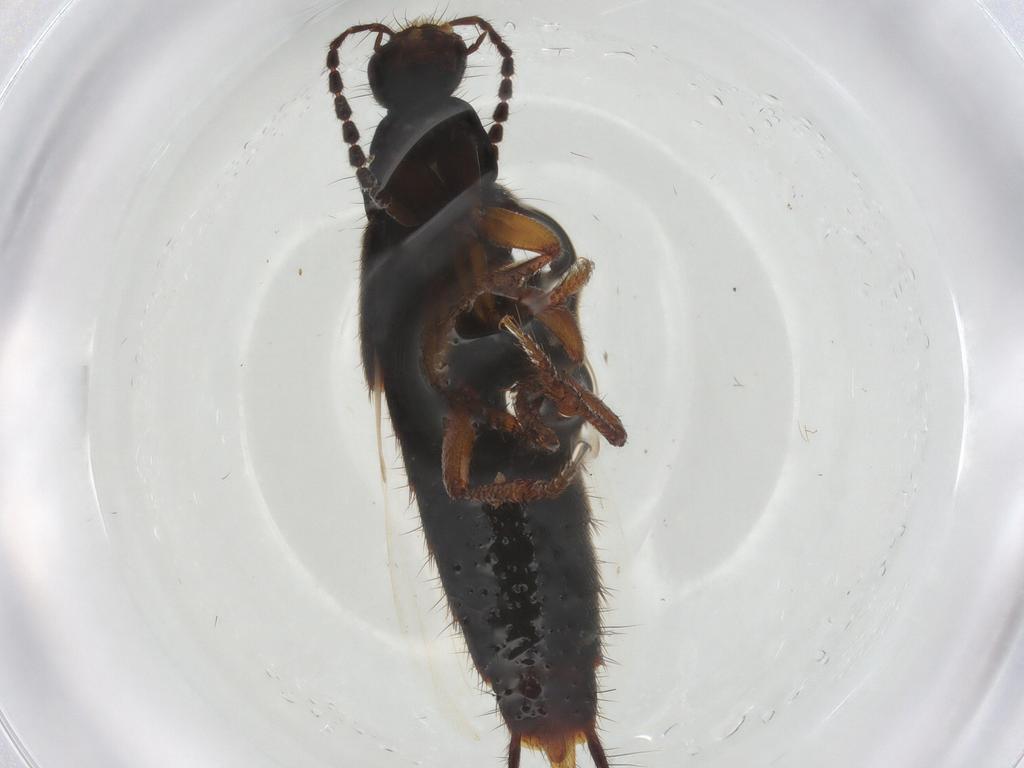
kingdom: Animalia
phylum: Arthropoda
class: Insecta
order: Coleoptera
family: Staphylinidae
